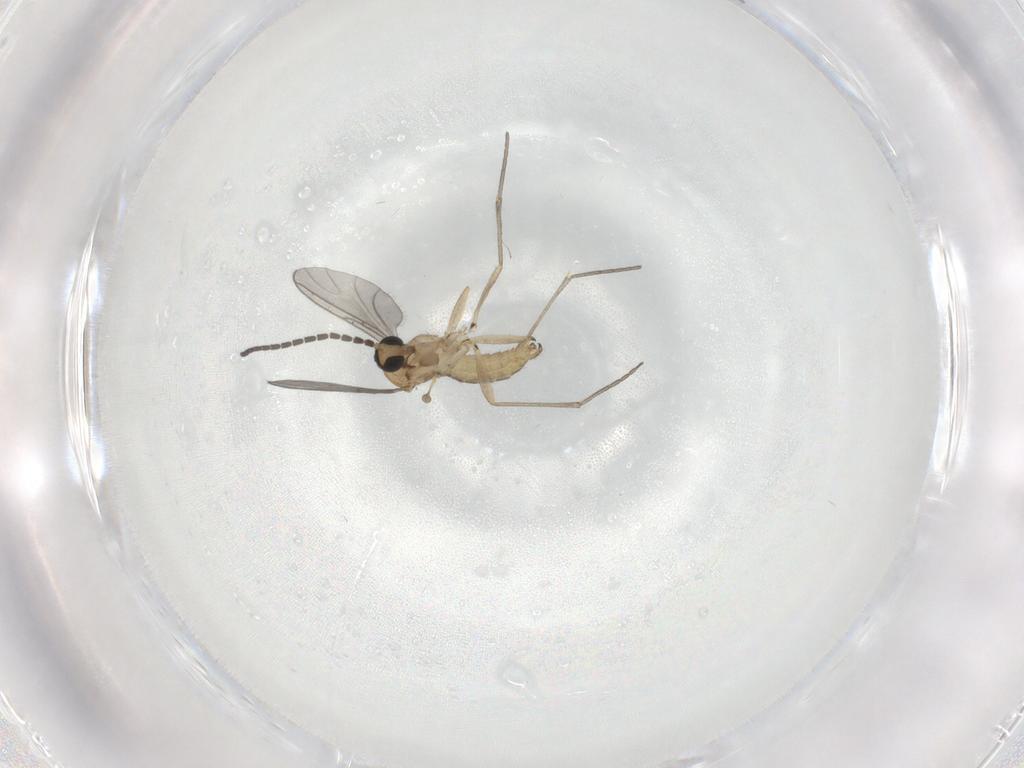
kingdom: Animalia
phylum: Arthropoda
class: Insecta
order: Diptera
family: Sciaridae
